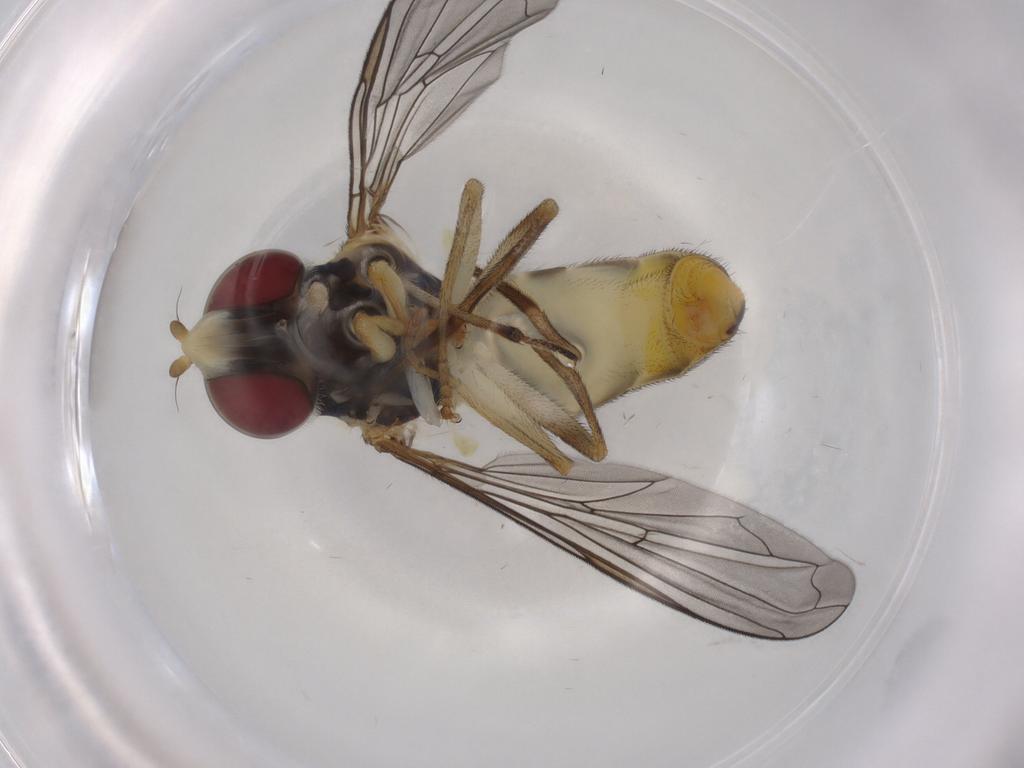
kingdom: Animalia
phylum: Arthropoda
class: Insecta
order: Diptera
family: Syrphidae
